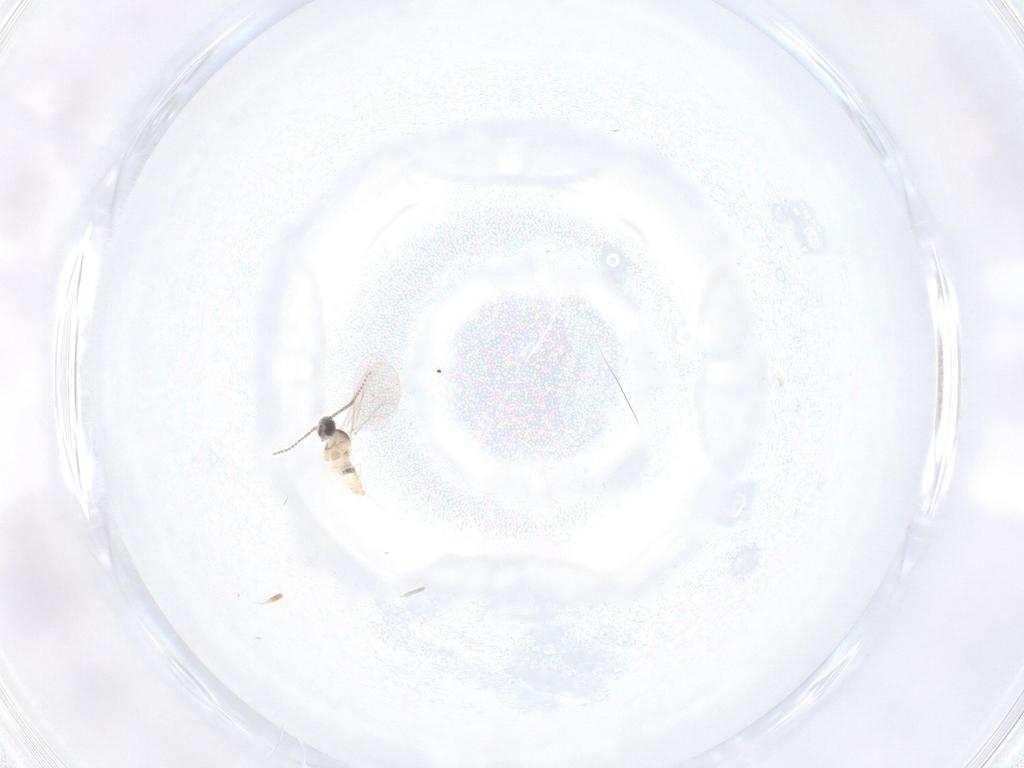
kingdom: Animalia
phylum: Arthropoda
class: Insecta
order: Diptera
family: Cecidomyiidae
